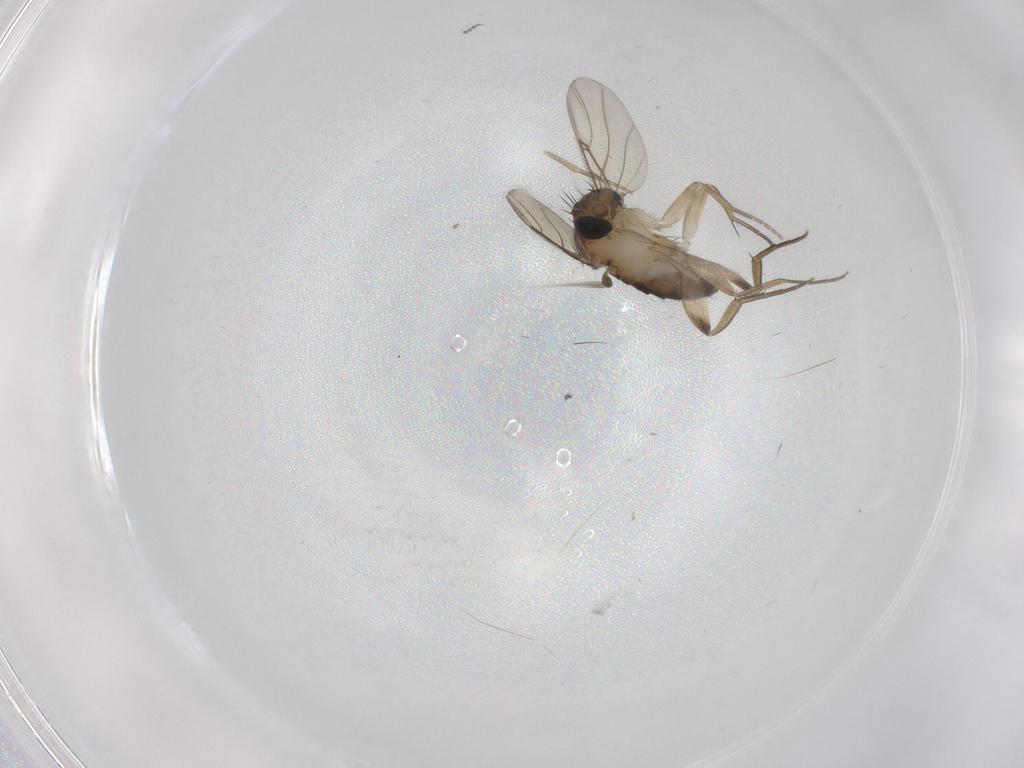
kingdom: Animalia
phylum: Arthropoda
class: Insecta
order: Diptera
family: Phoridae
